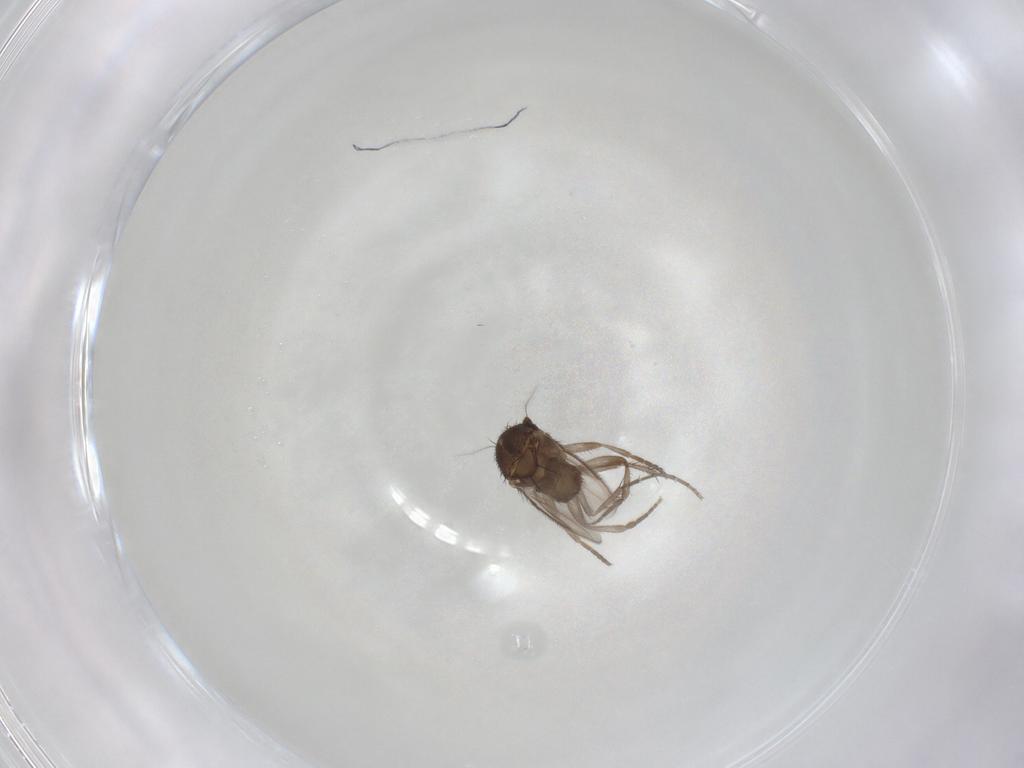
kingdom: Animalia
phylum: Arthropoda
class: Insecta
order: Diptera
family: Sphaeroceridae
